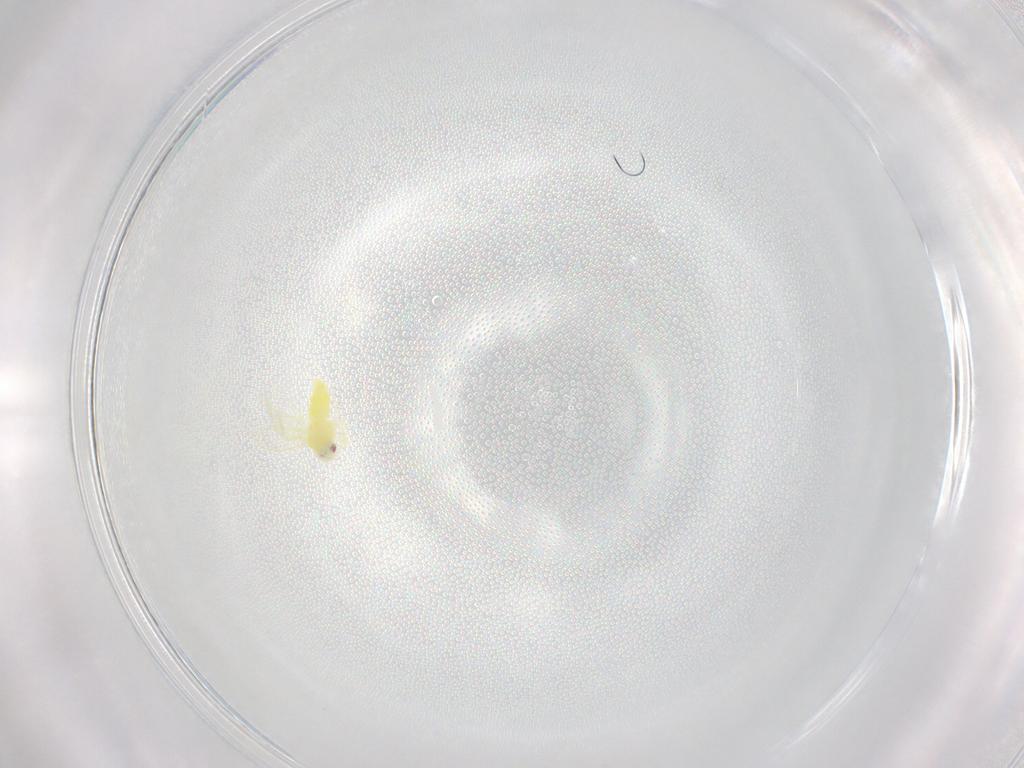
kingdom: Animalia
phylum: Arthropoda
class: Insecta
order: Hemiptera
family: Aleyrodidae
